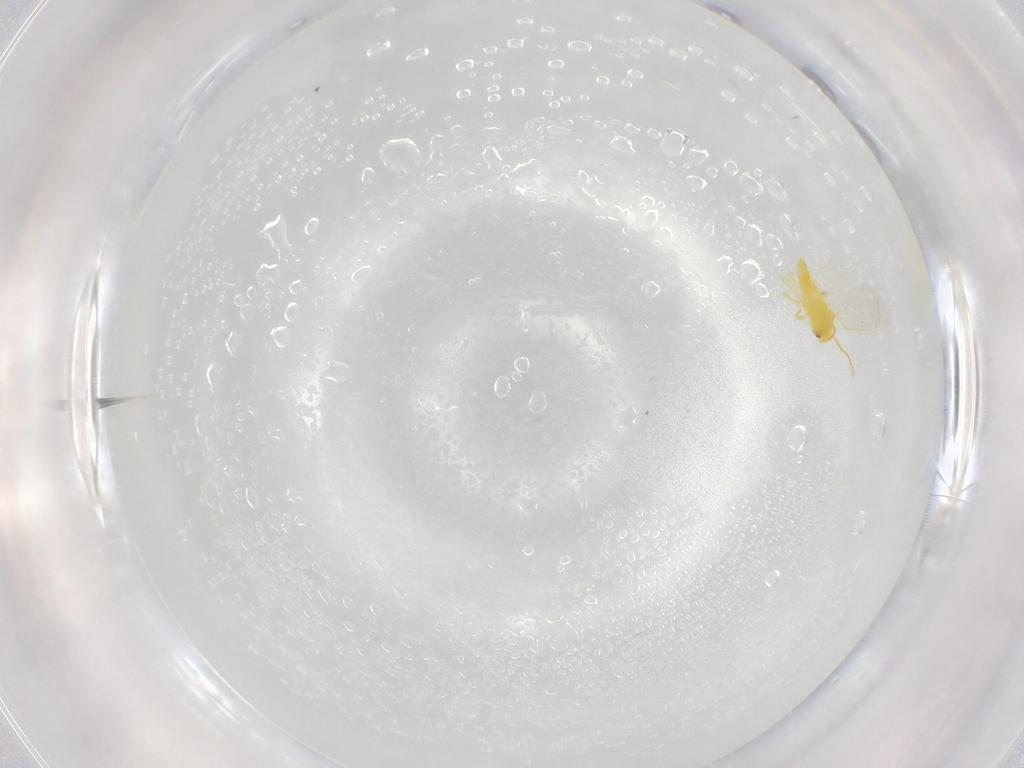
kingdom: Animalia
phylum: Arthropoda
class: Insecta
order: Hemiptera
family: Aleyrodidae
